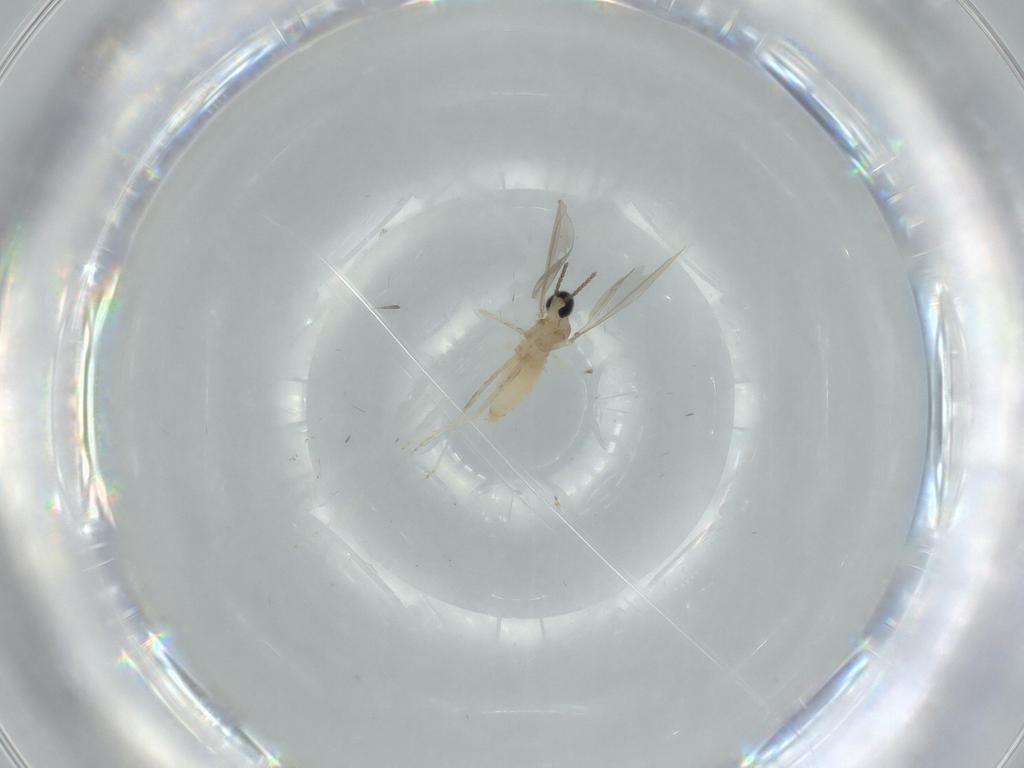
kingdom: Animalia
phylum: Arthropoda
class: Insecta
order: Diptera
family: Cecidomyiidae
